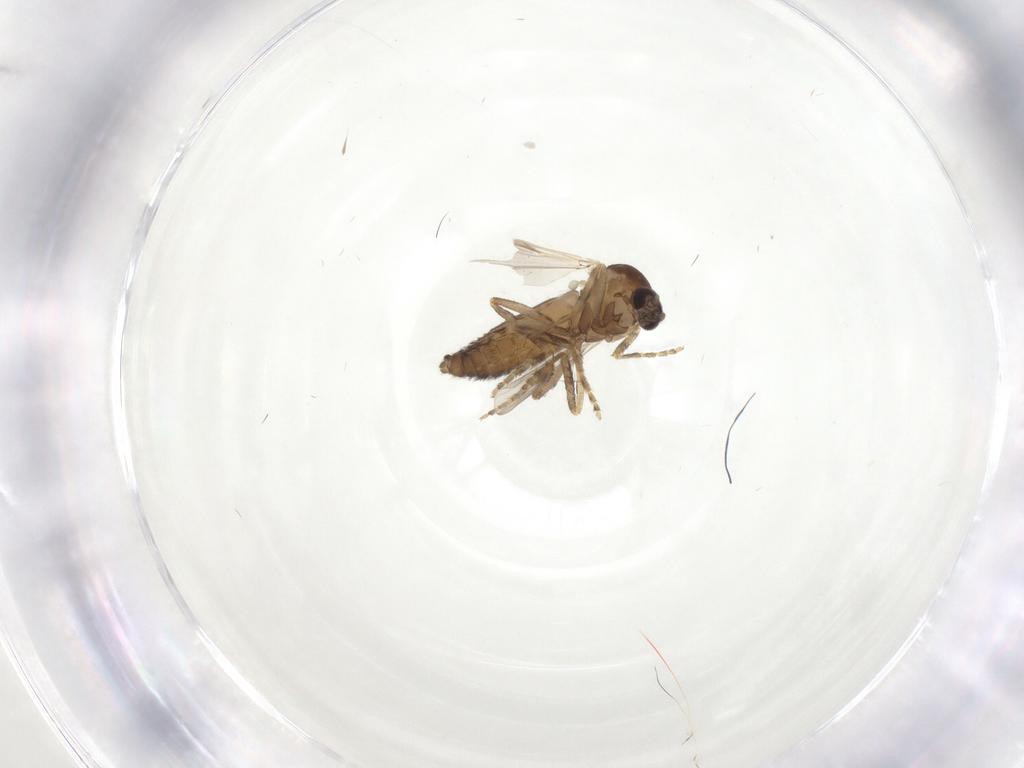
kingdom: Animalia
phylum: Arthropoda
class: Insecta
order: Diptera
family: Ceratopogonidae
